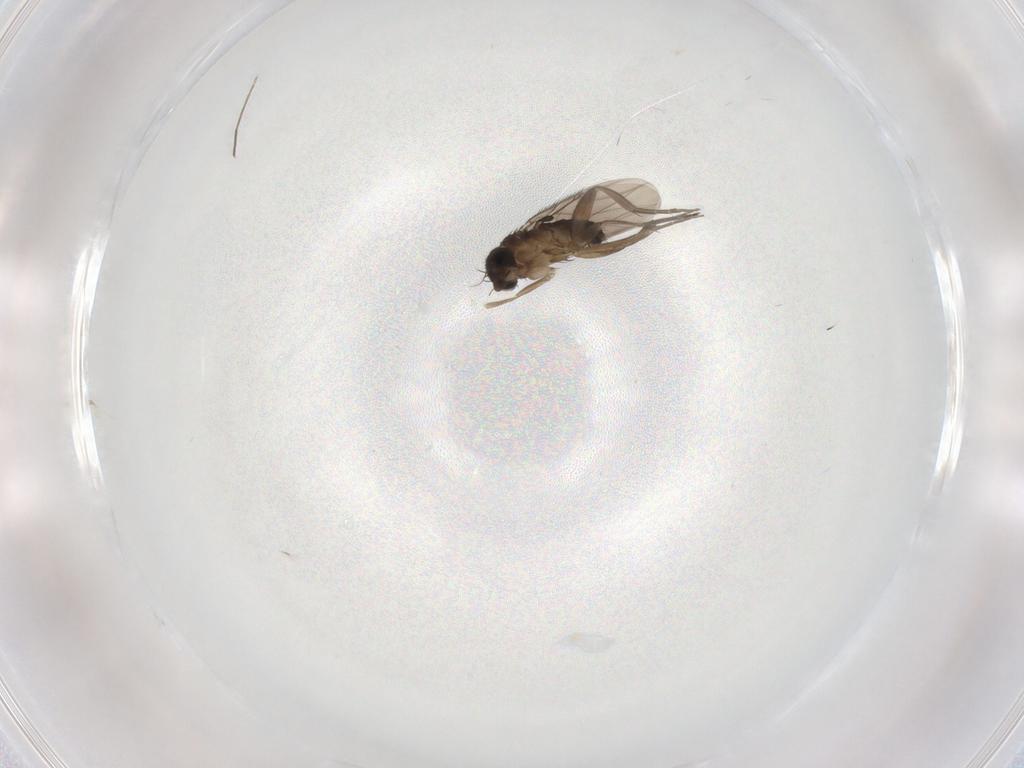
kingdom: Animalia
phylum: Arthropoda
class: Insecta
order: Diptera
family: Phoridae
